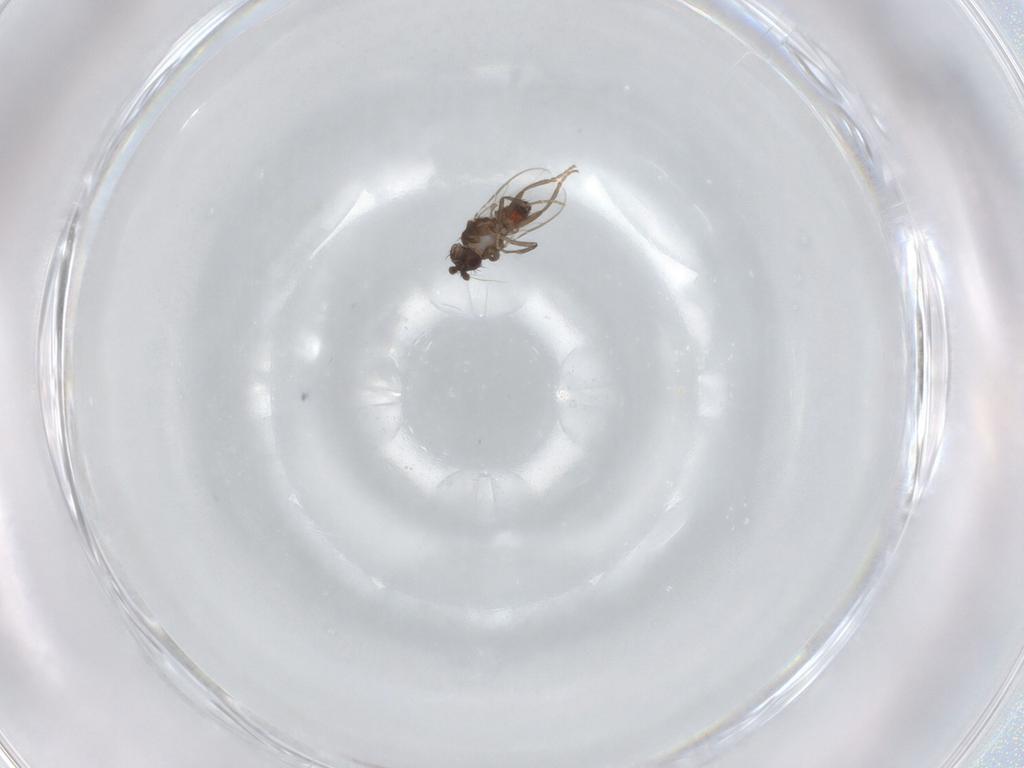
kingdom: Animalia
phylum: Arthropoda
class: Insecta
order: Diptera
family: Sphaeroceridae
